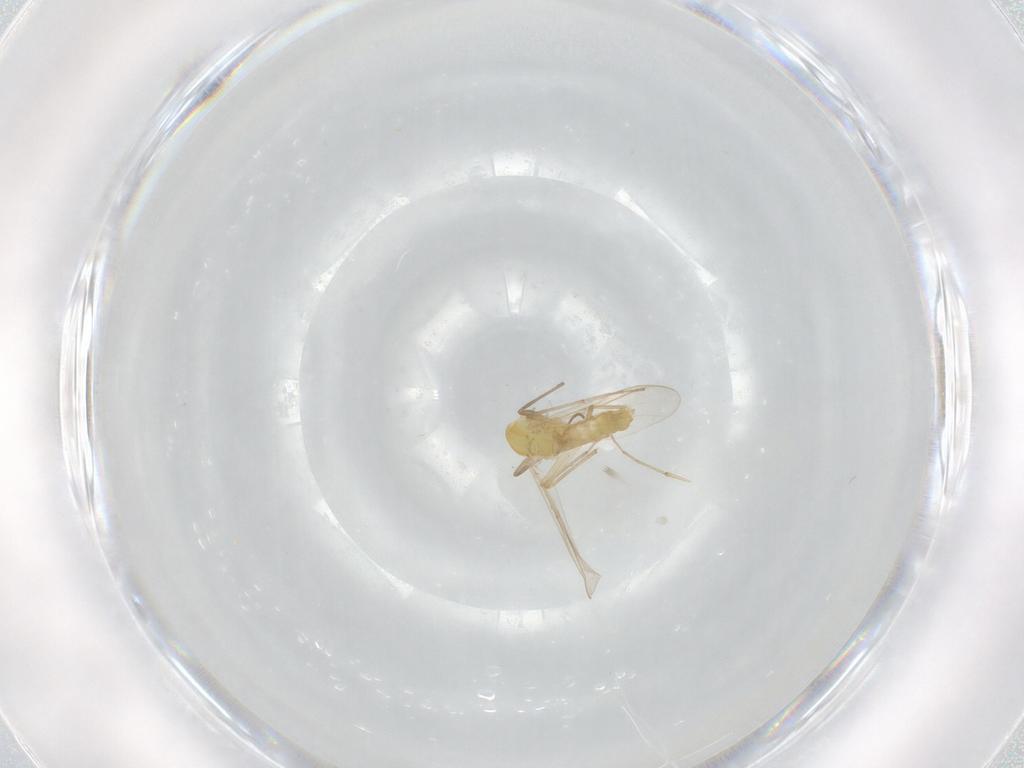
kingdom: Animalia
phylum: Arthropoda
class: Insecta
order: Diptera
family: Chironomidae
